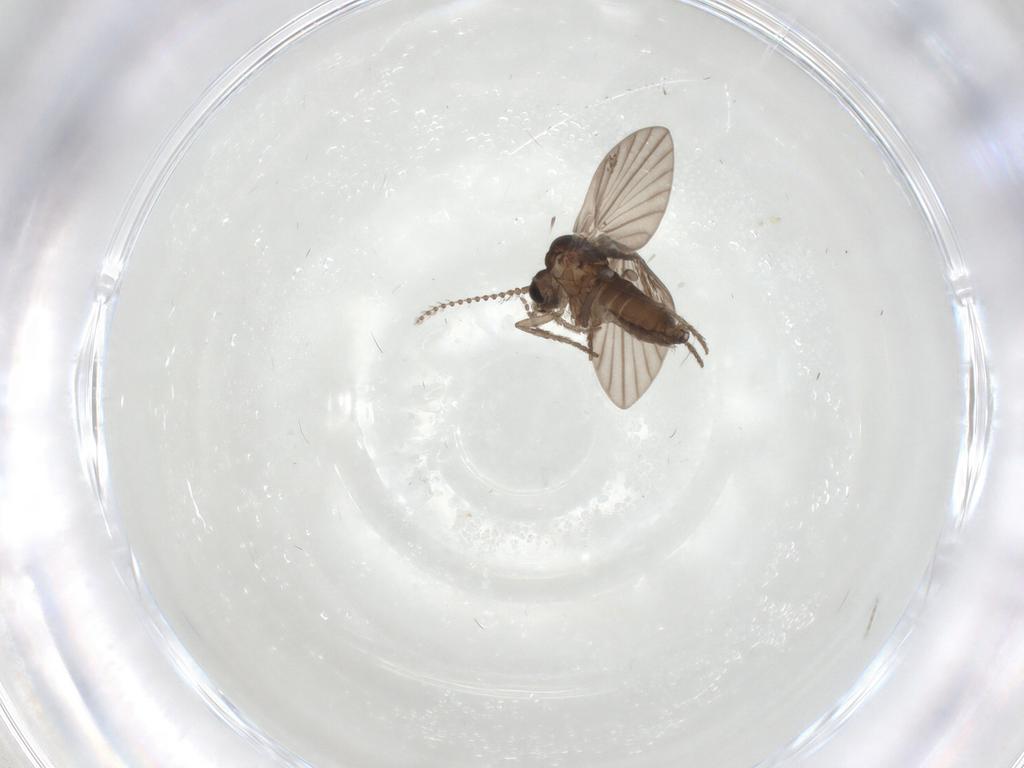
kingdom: Animalia
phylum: Arthropoda
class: Insecta
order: Diptera
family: Psychodidae
